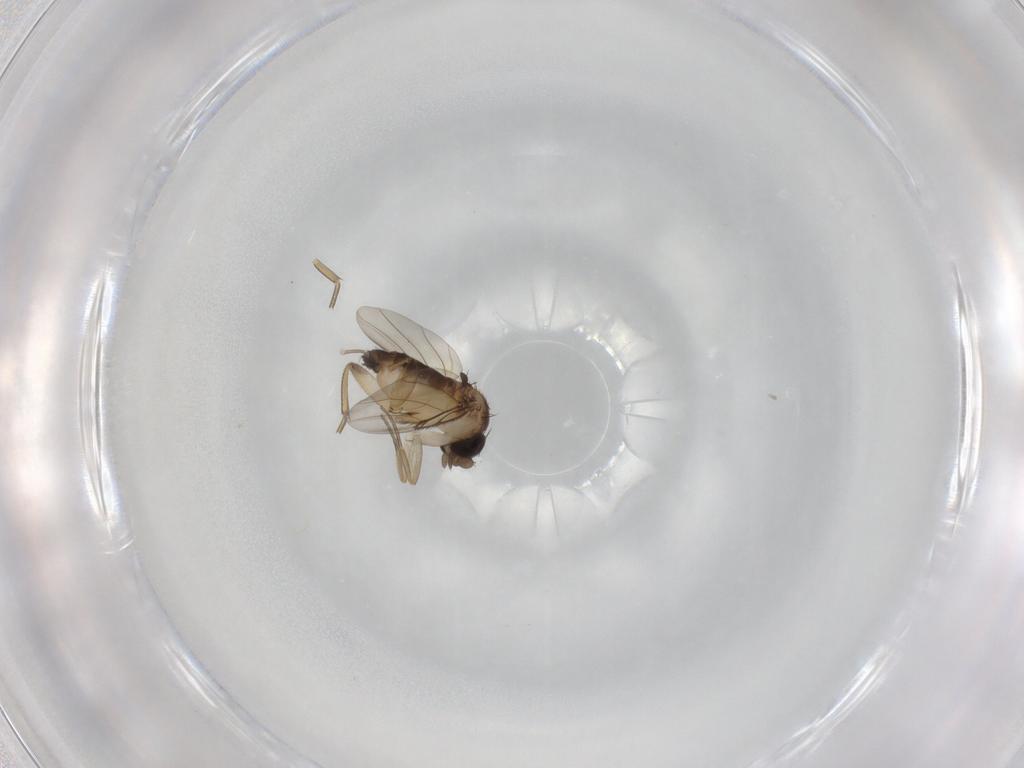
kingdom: Animalia
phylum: Arthropoda
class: Insecta
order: Diptera
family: Phoridae
